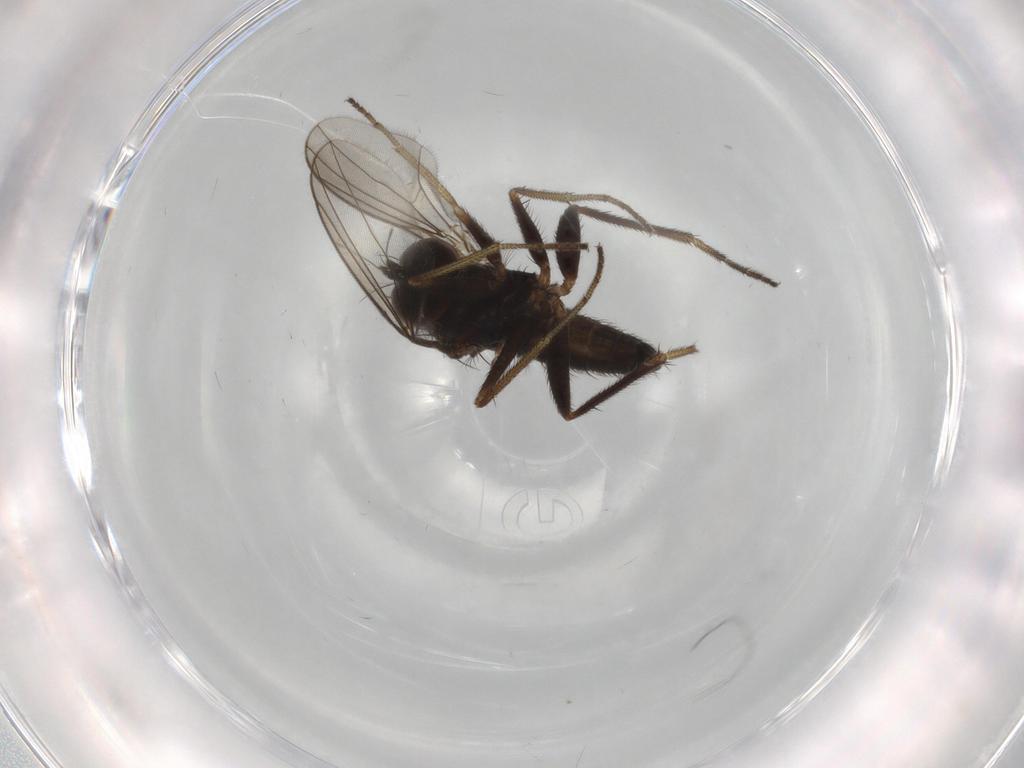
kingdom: Animalia
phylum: Arthropoda
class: Insecta
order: Diptera
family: Dolichopodidae
